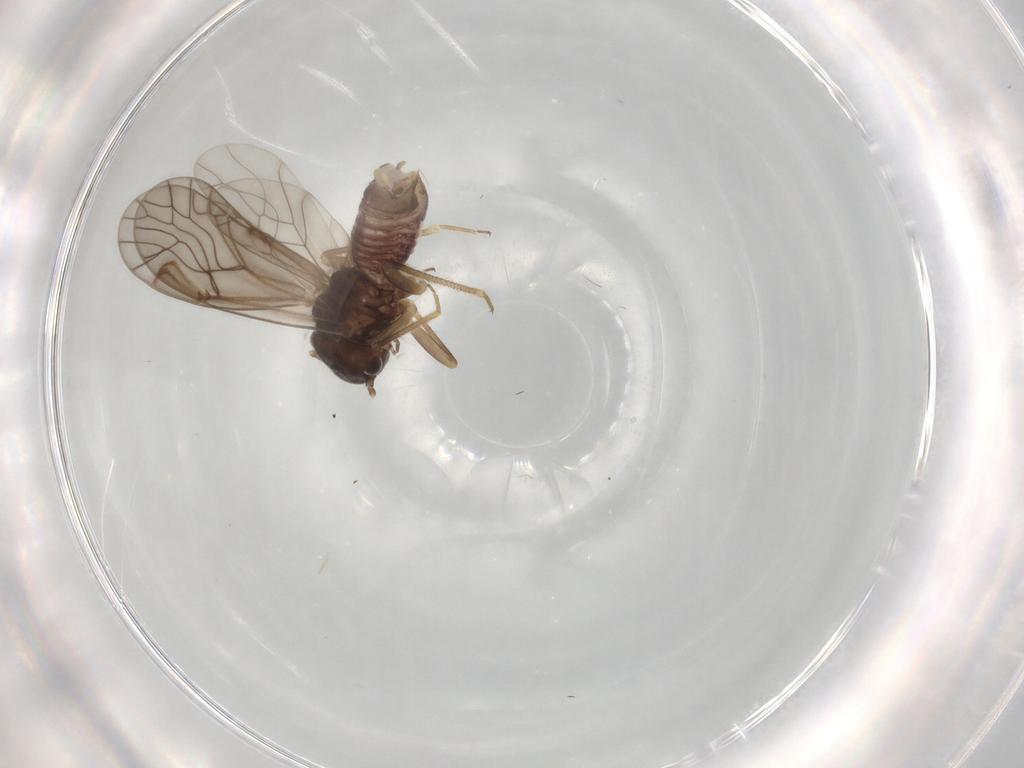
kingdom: Animalia
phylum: Arthropoda
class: Insecta
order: Psocodea
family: Lachesillidae
